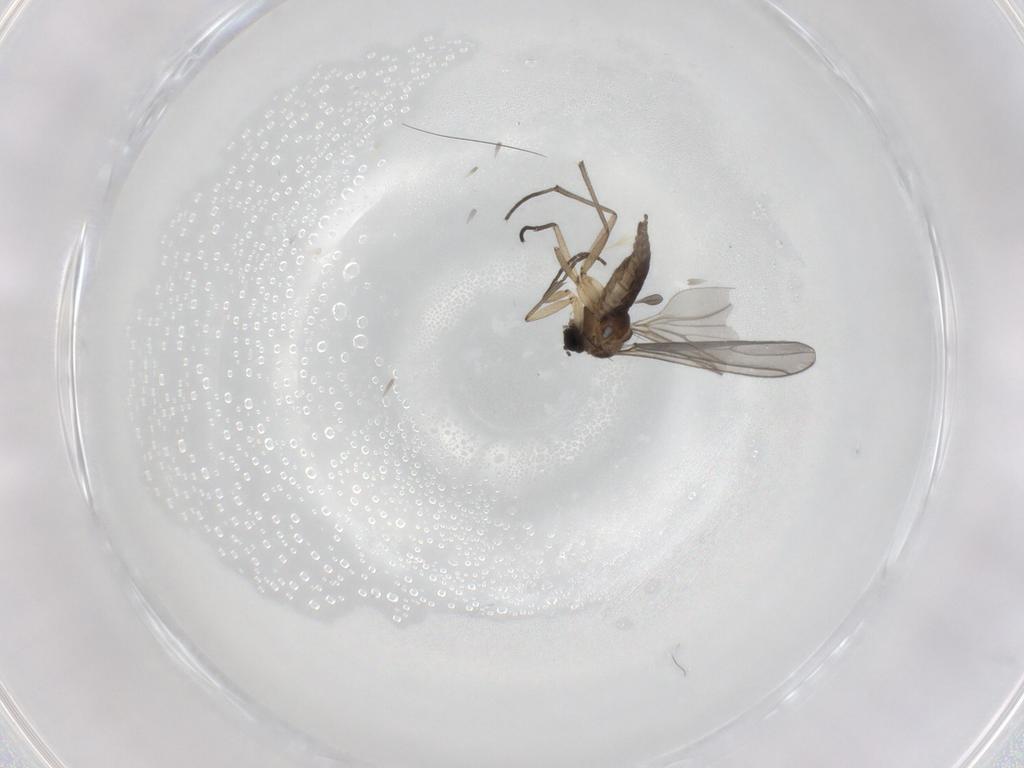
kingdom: Animalia
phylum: Arthropoda
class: Insecta
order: Diptera
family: Sciaridae
